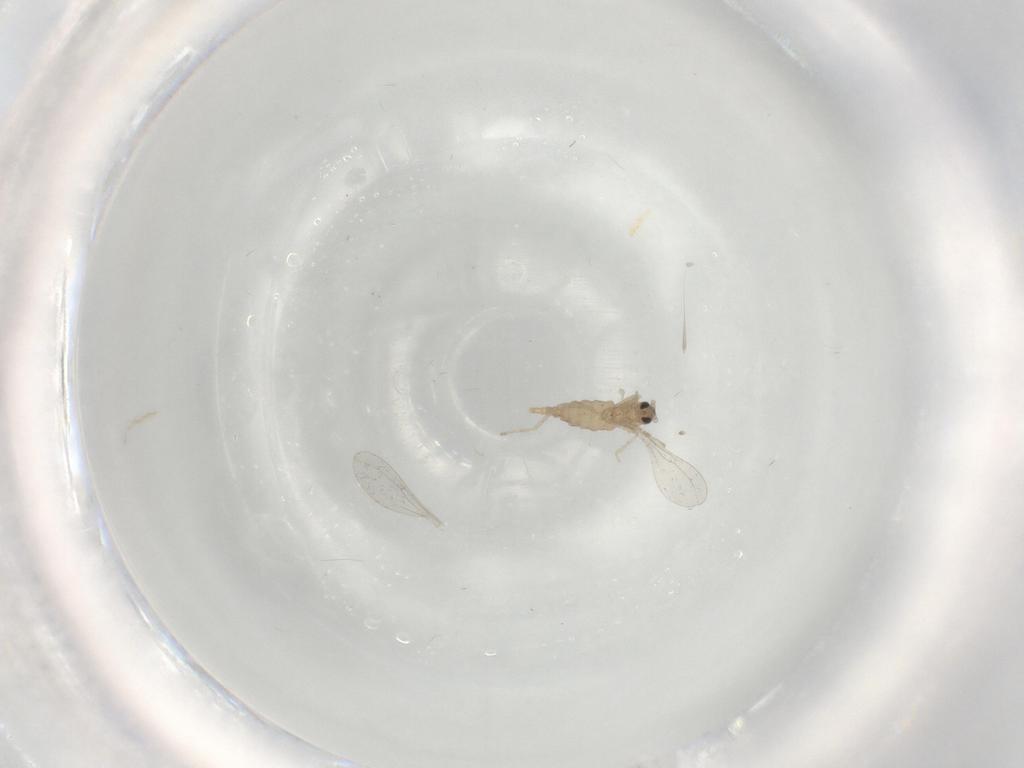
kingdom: Animalia
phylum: Arthropoda
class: Insecta
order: Diptera
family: Cecidomyiidae
